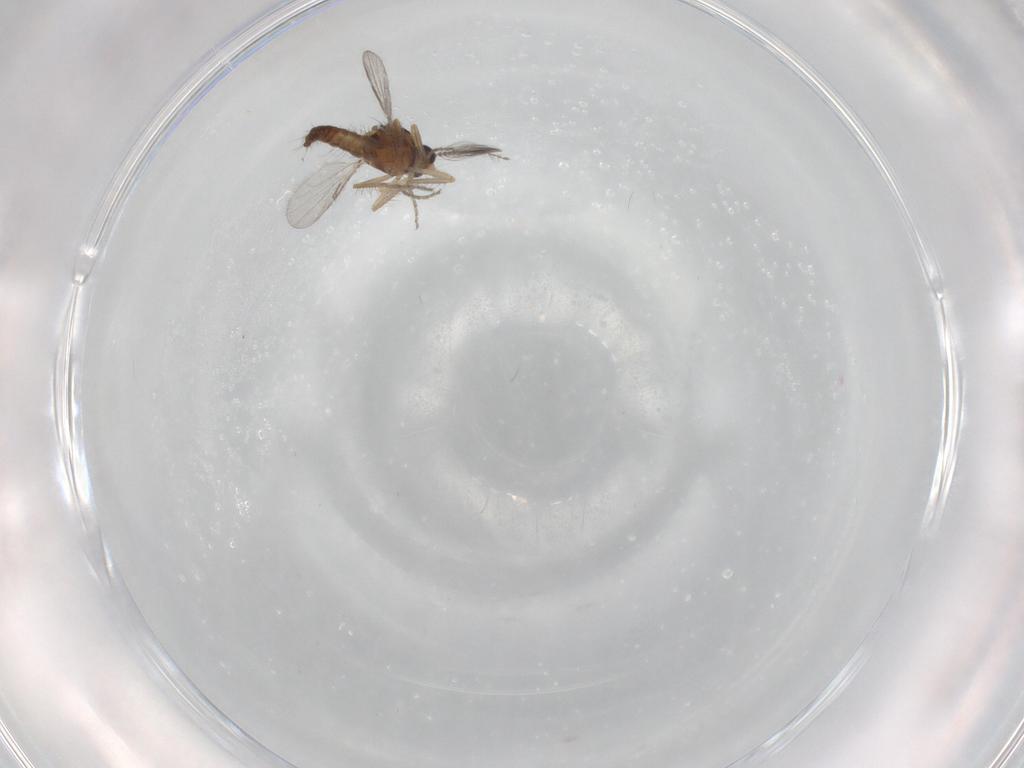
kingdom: Animalia
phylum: Arthropoda
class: Insecta
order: Diptera
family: Ceratopogonidae
